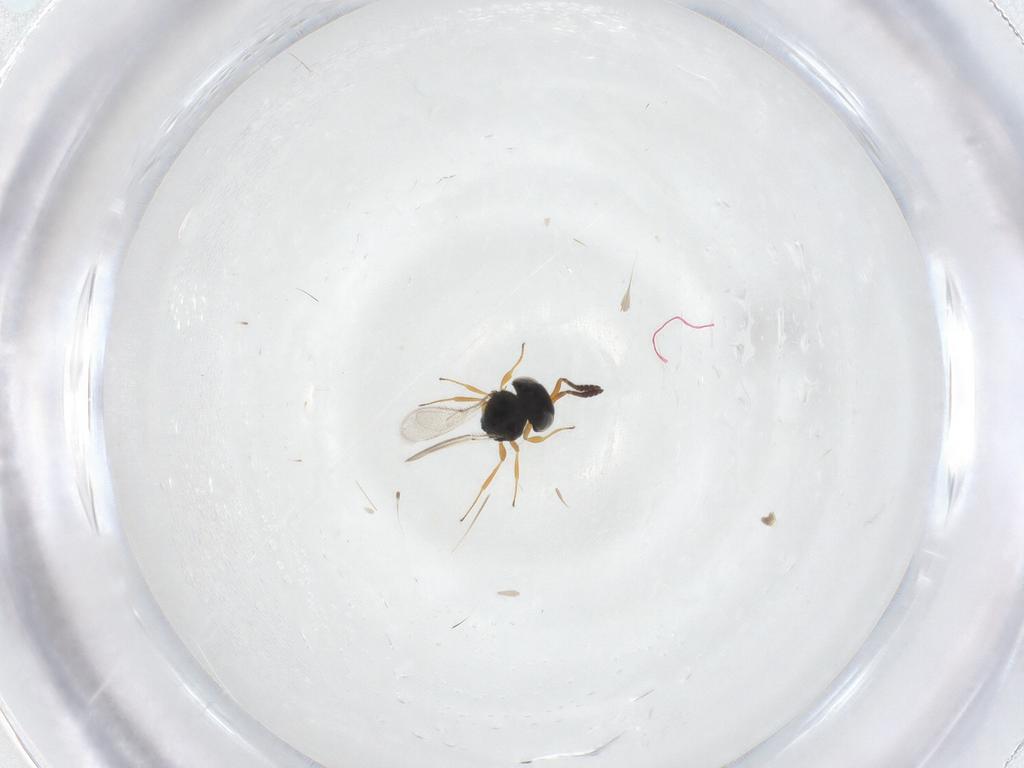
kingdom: Animalia
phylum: Arthropoda
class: Insecta
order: Hymenoptera
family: Scelionidae
